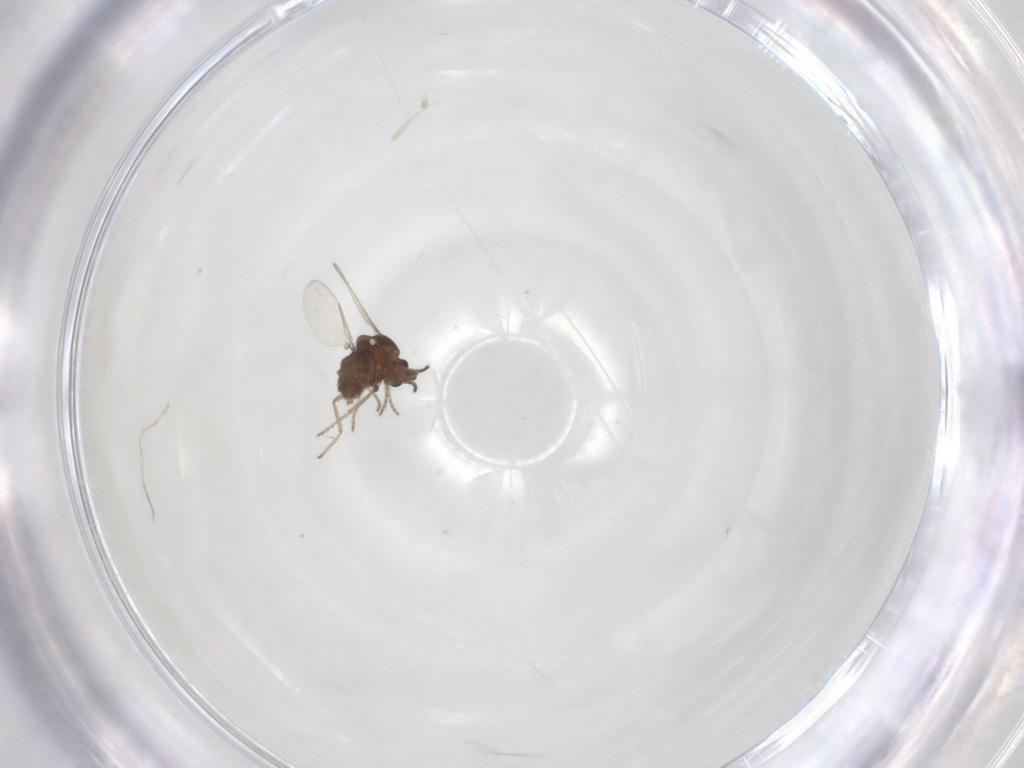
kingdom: Animalia
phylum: Arthropoda
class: Insecta
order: Diptera
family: Ceratopogonidae
